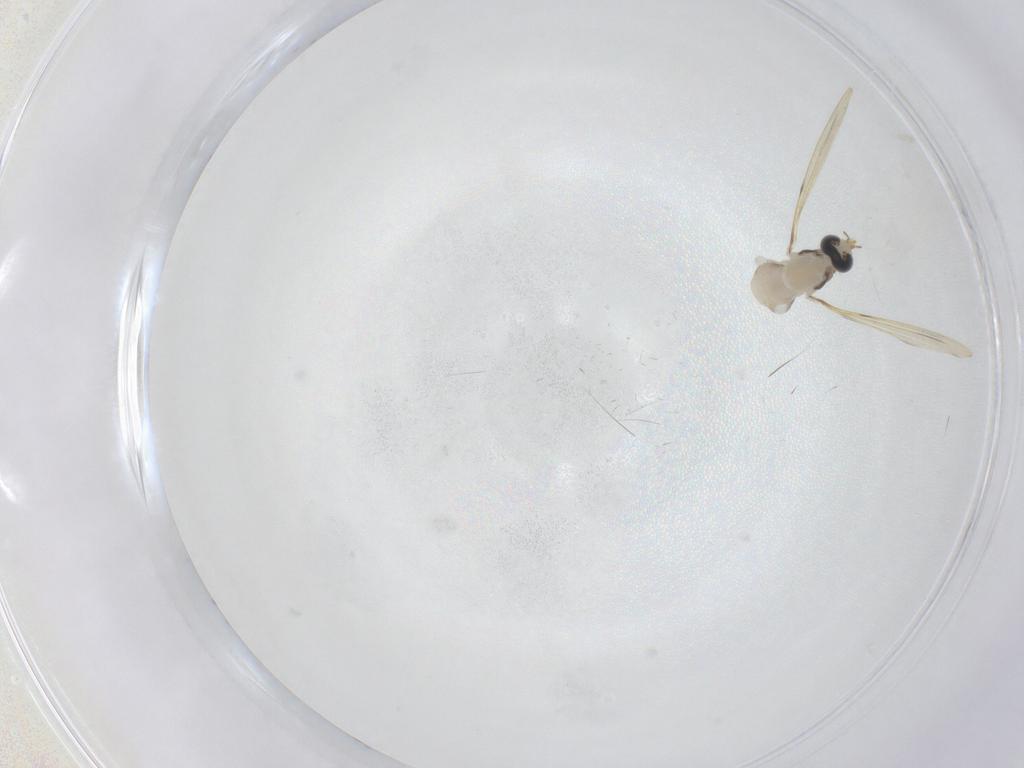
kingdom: Animalia
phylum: Arthropoda
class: Insecta
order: Diptera
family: Cecidomyiidae
